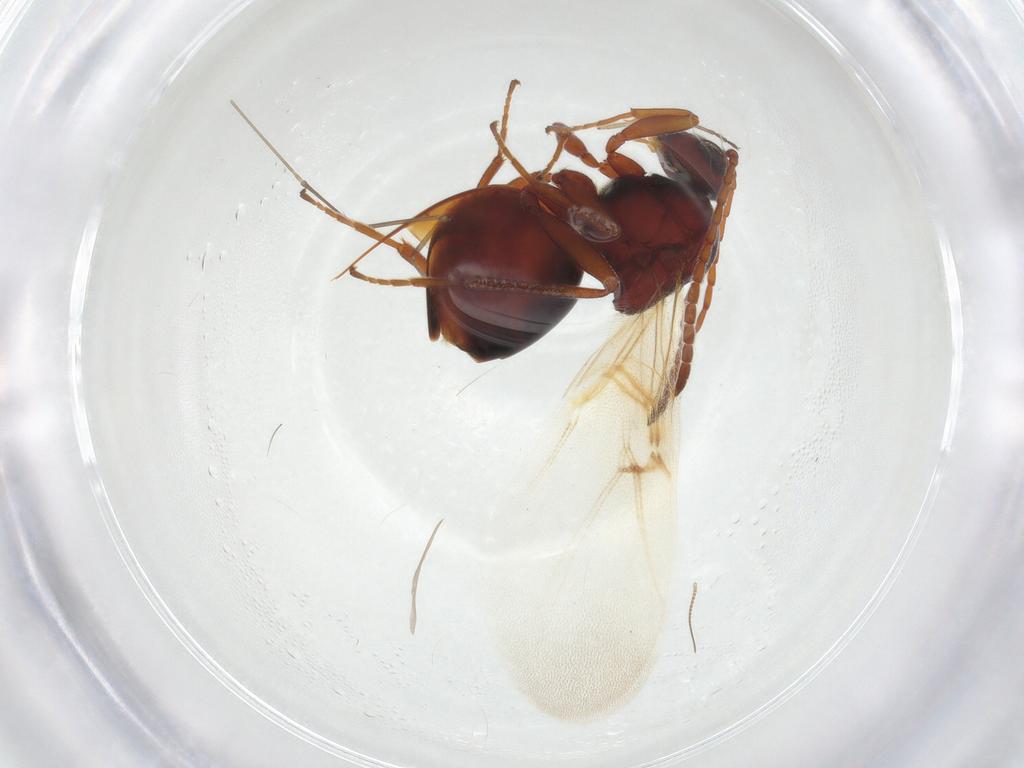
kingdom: Animalia
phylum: Arthropoda
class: Insecta
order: Hymenoptera
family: Cynipidae
